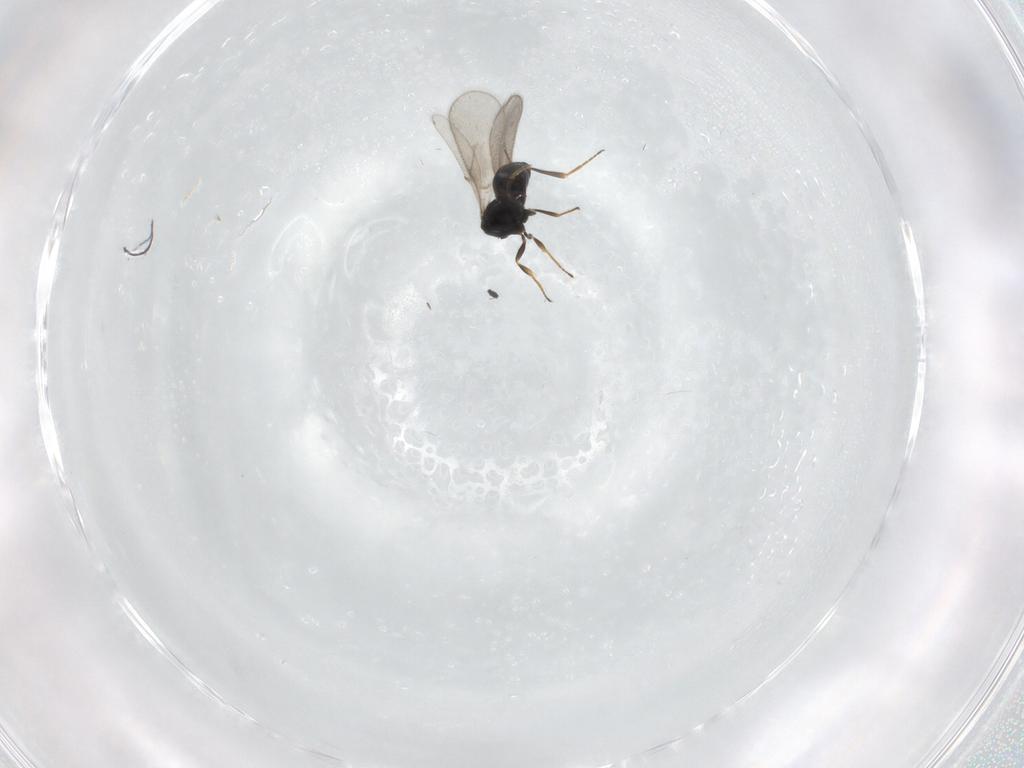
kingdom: Animalia
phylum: Arthropoda
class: Insecta
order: Hymenoptera
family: Scelionidae
